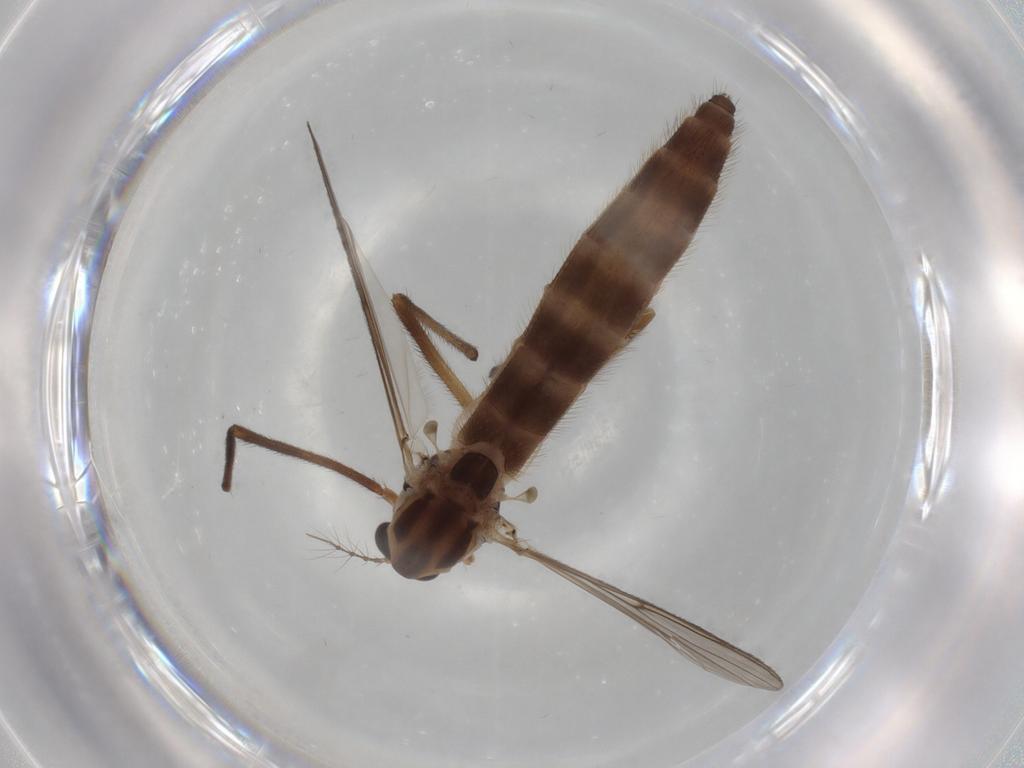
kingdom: Animalia
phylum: Arthropoda
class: Insecta
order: Diptera
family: Chironomidae
